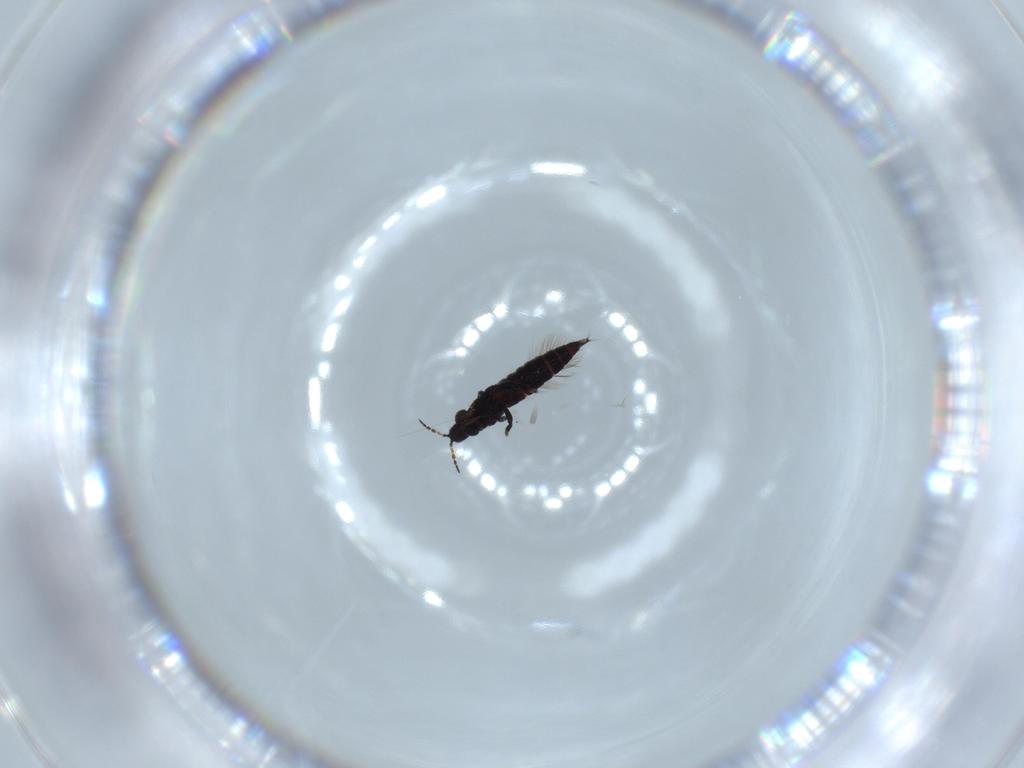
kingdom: Animalia
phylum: Arthropoda
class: Insecta
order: Thysanoptera
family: Phlaeothripidae
